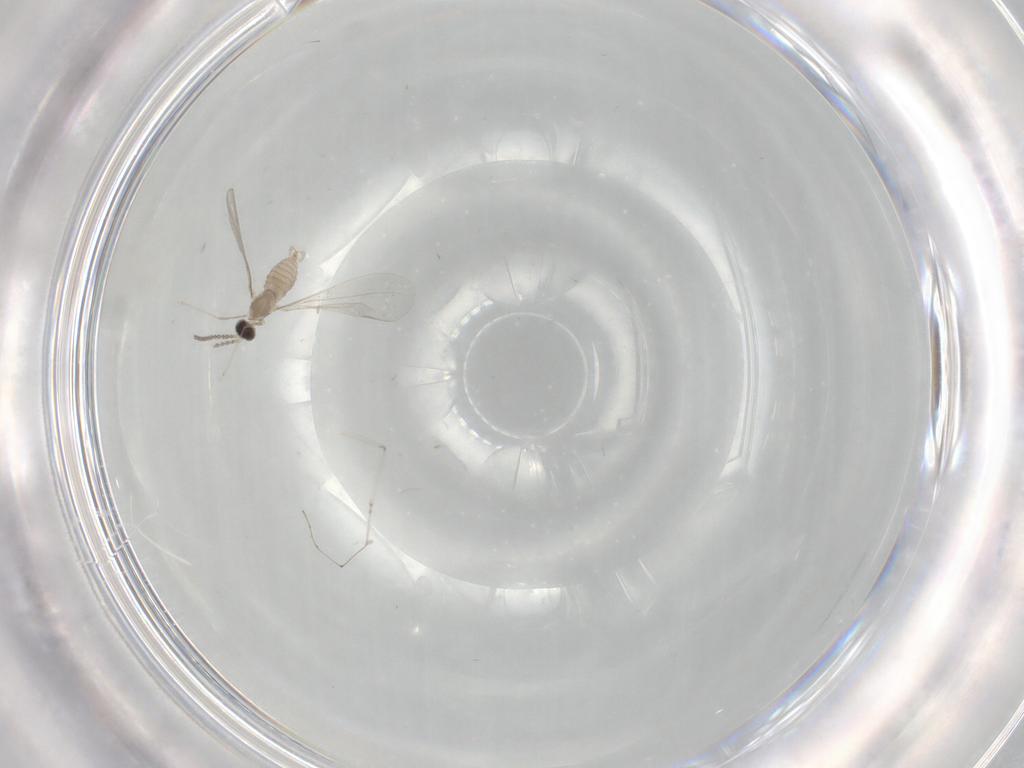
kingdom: Animalia
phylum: Arthropoda
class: Insecta
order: Diptera
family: Cecidomyiidae
